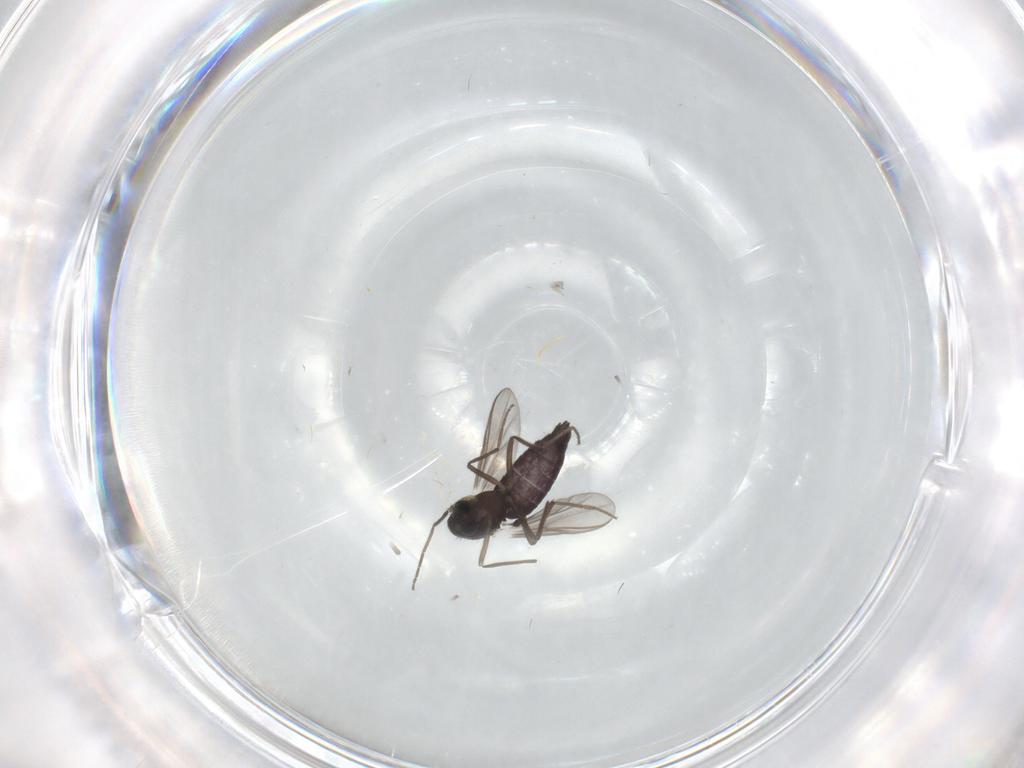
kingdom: Animalia
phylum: Arthropoda
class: Insecta
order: Diptera
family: Chironomidae
